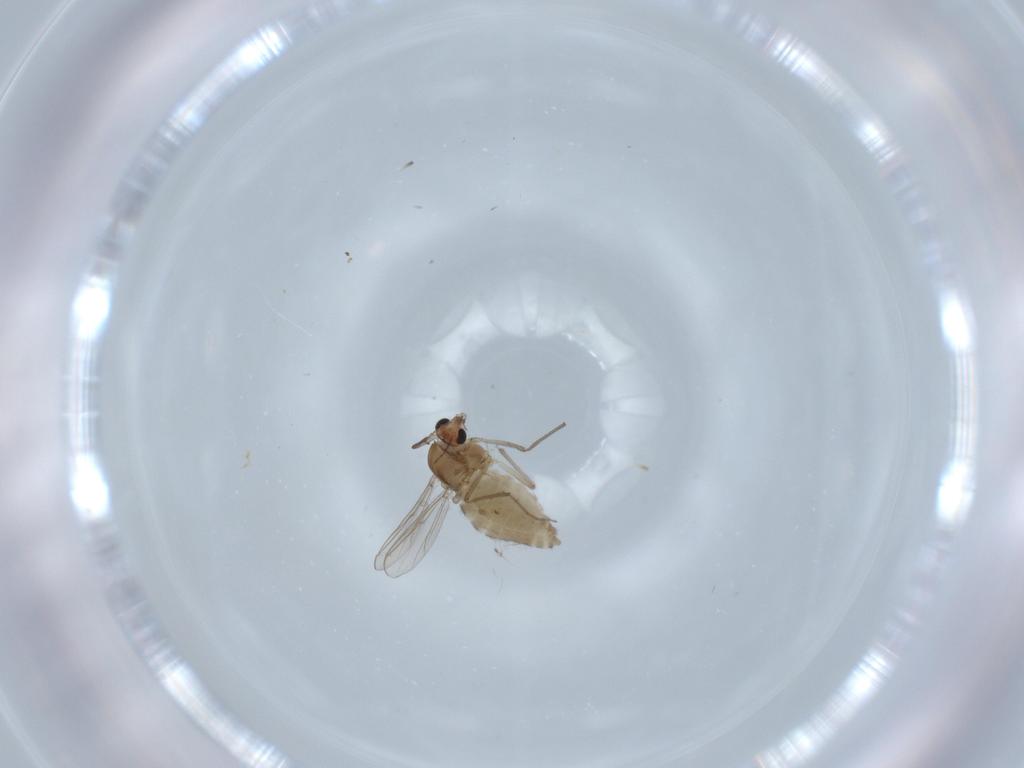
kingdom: Animalia
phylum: Arthropoda
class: Insecta
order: Diptera
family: Chironomidae
